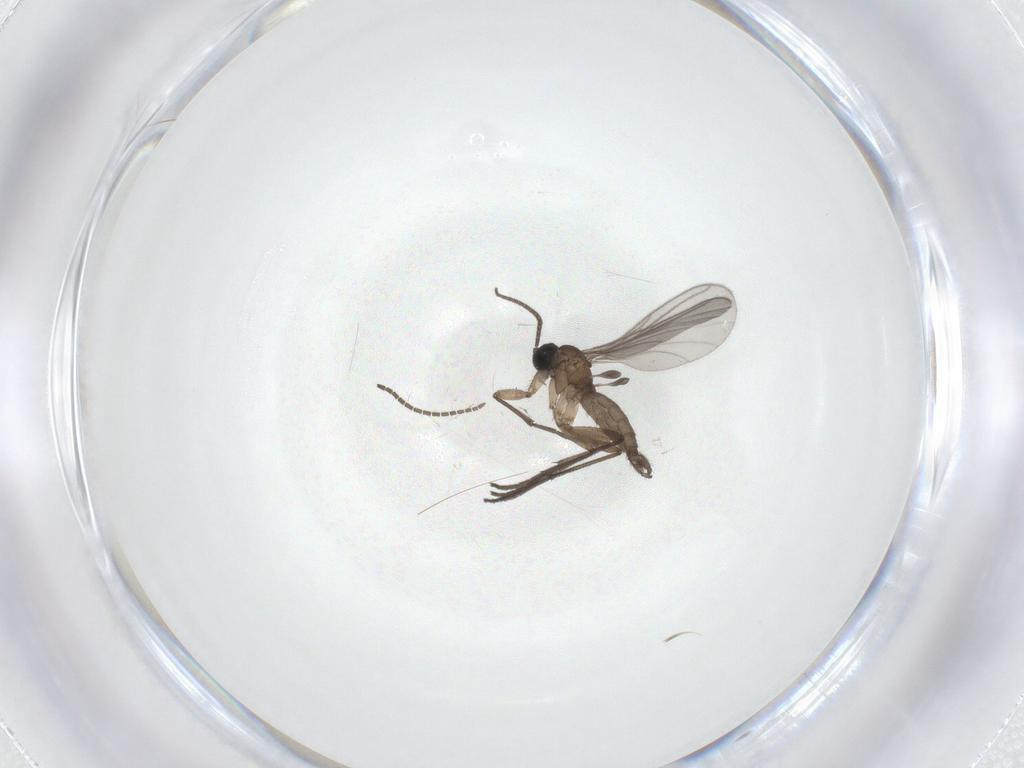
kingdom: Animalia
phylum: Arthropoda
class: Insecta
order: Diptera
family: Sciaridae
